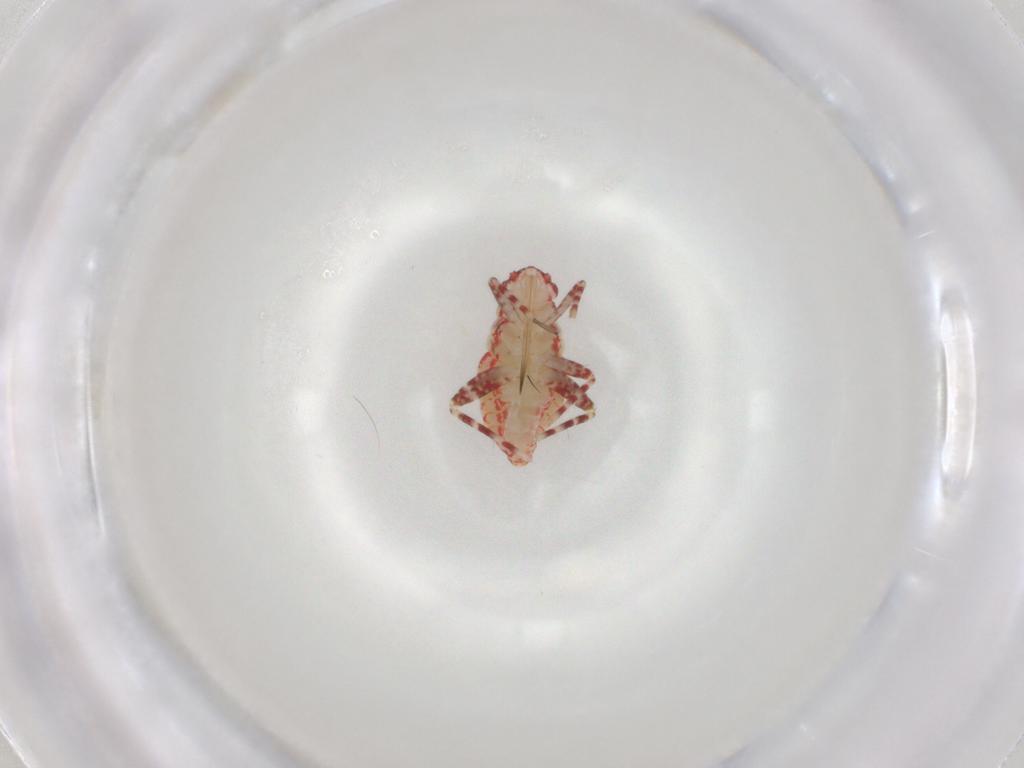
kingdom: Animalia
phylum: Arthropoda
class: Insecta
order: Hemiptera
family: Miridae
